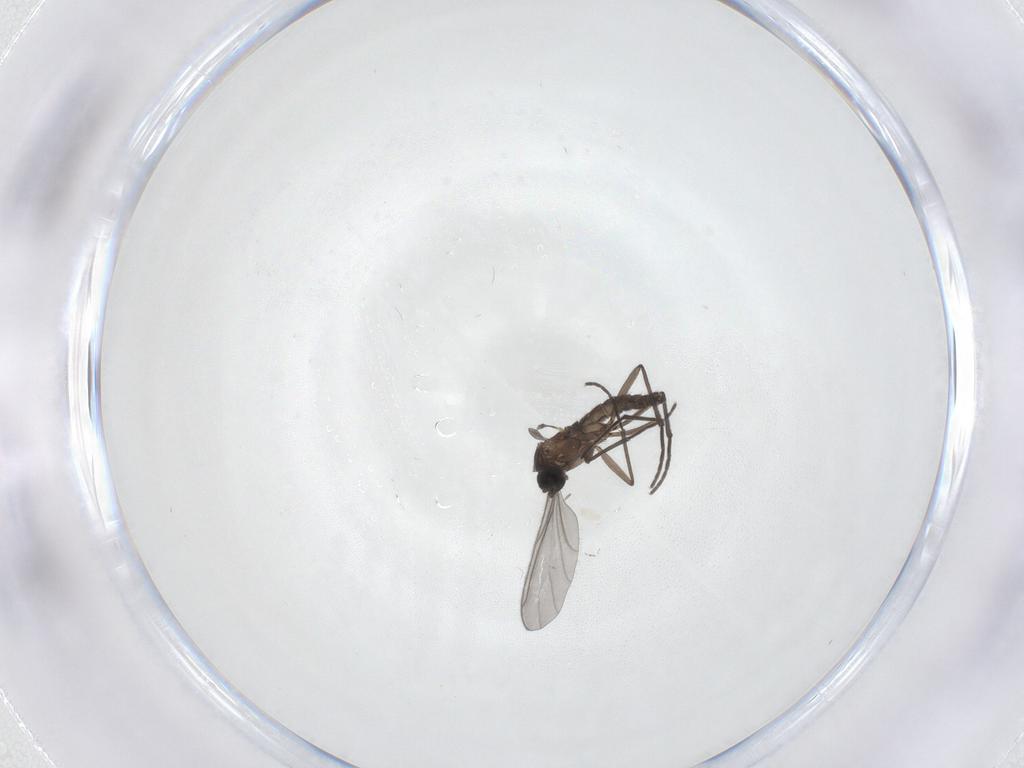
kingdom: Animalia
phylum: Arthropoda
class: Insecta
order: Diptera
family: Sciaridae
